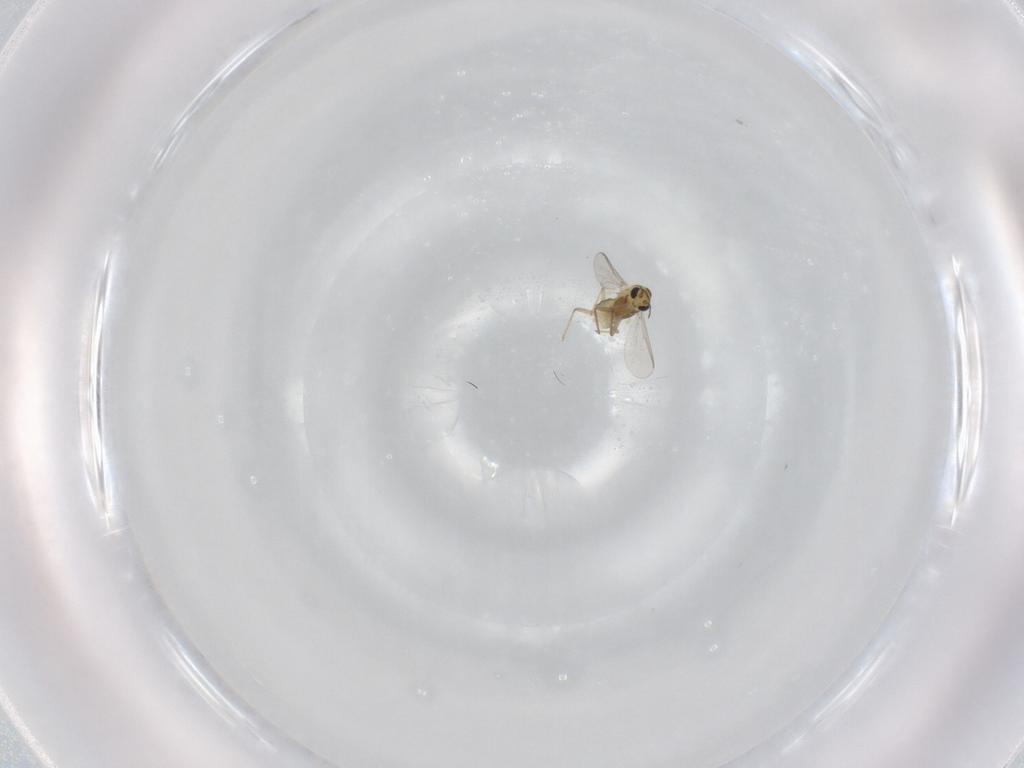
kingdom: Animalia
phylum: Arthropoda
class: Insecta
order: Diptera
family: Chironomidae
